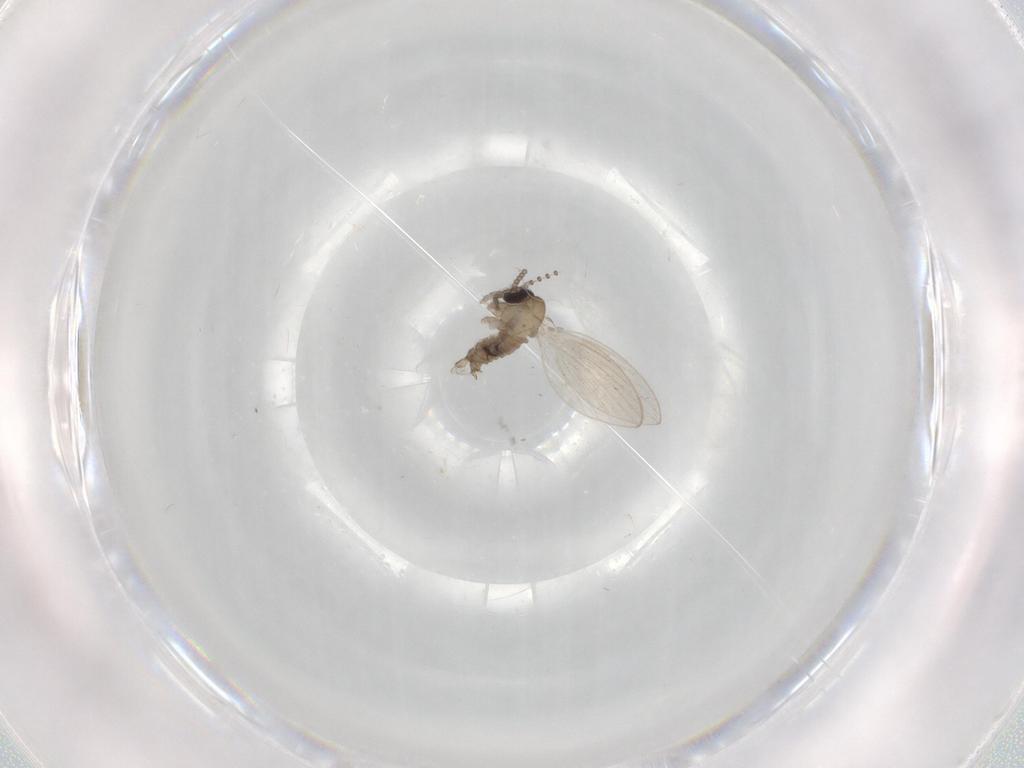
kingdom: Animalia
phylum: Arthropoda
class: Insecta
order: Diptera
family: Psychodidae
